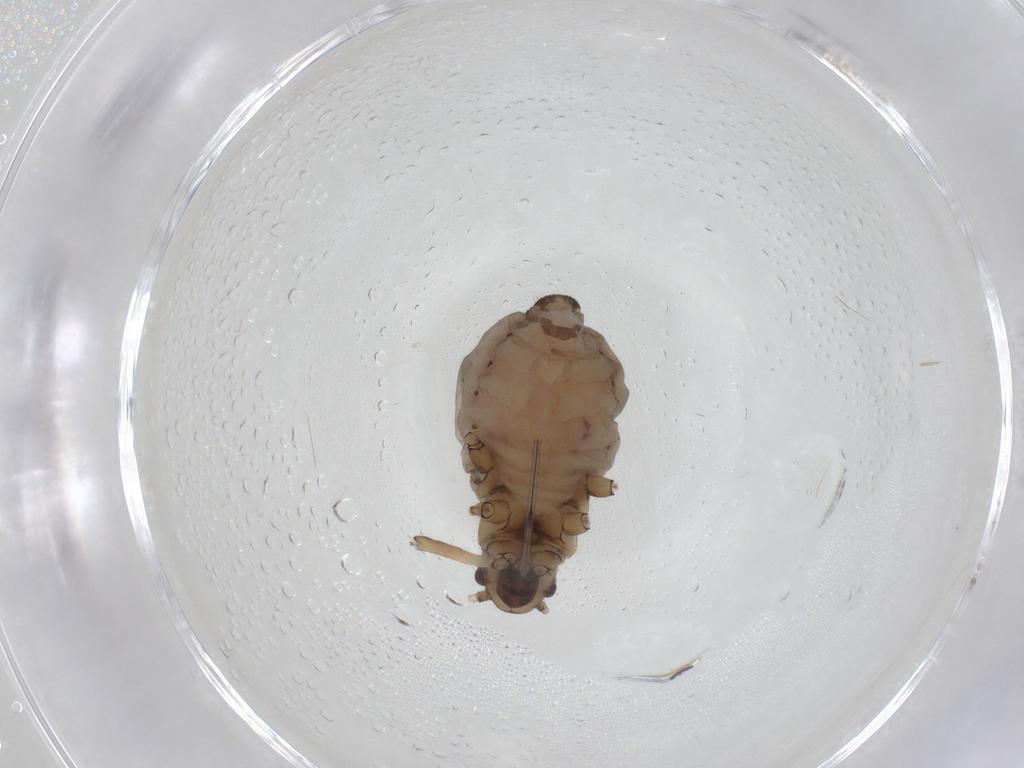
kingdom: Animalia
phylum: Arthropoda
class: Insecta
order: Hemiptera
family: Aphididae
